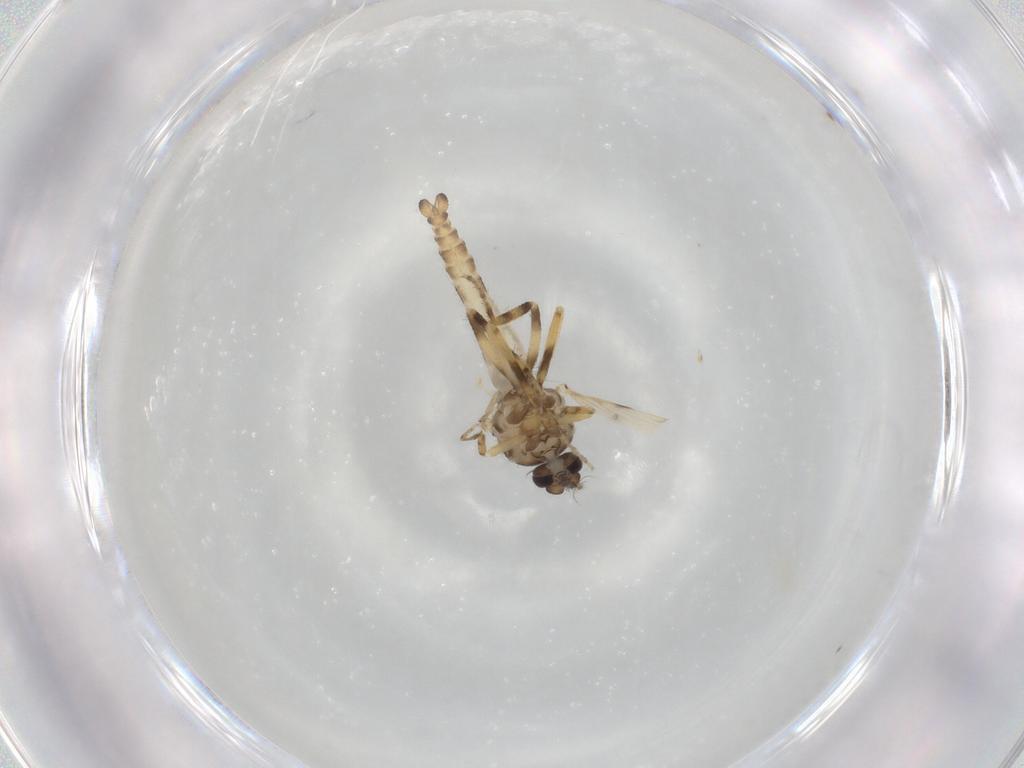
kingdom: Animalia
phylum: Arthropoda
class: Insecta
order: Diptera
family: Ceratopogonidae
